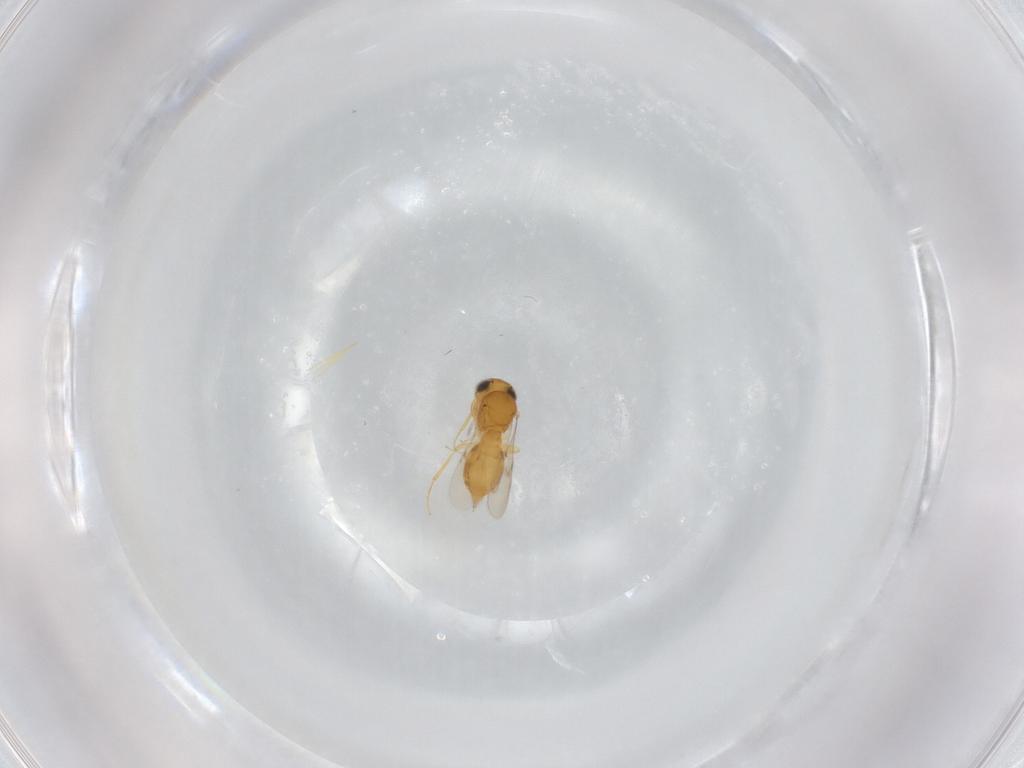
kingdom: Animalia
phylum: Arthropoda
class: Insecta
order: Hymenoptera
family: Scelionidae
